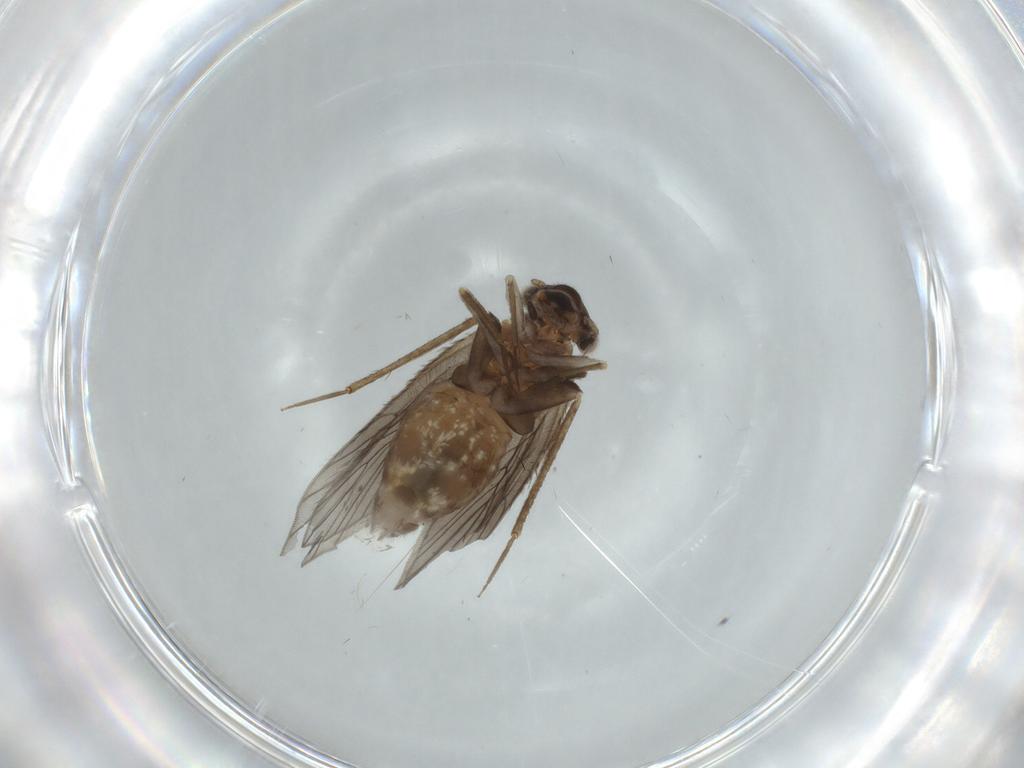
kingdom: Animalia
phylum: Arthropoda
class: Insecta
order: Psocodea
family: Lepidopsocidae
